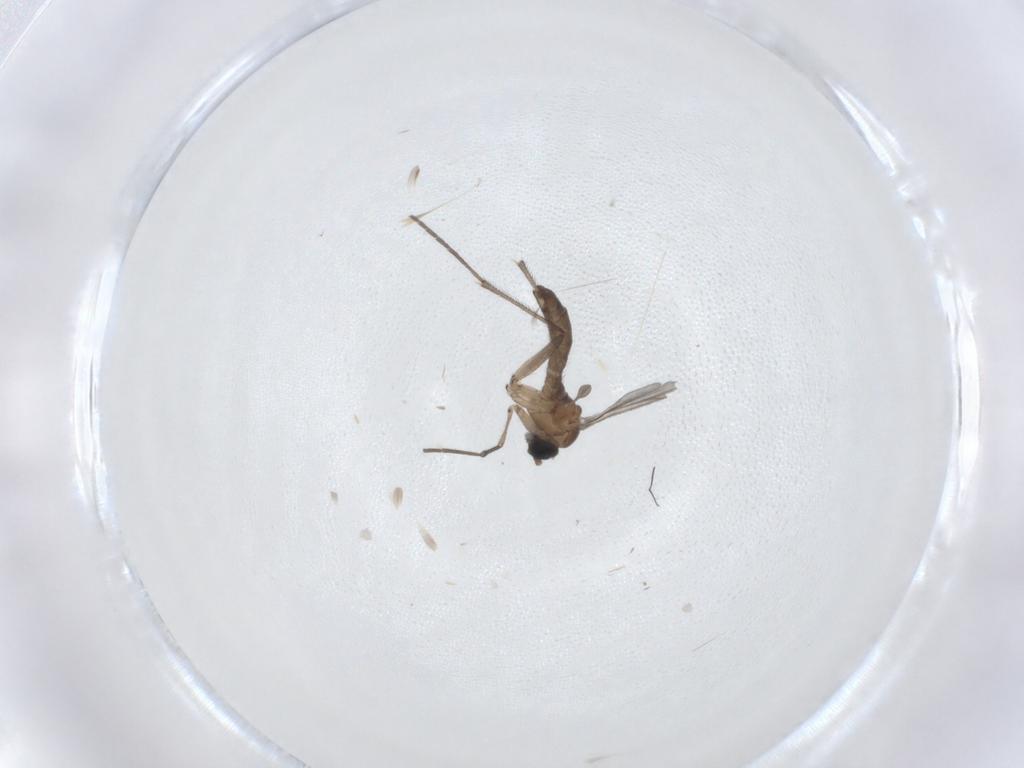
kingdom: Animalia
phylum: Arthropoda
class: Insecta
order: Diptera
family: Sciaridae
